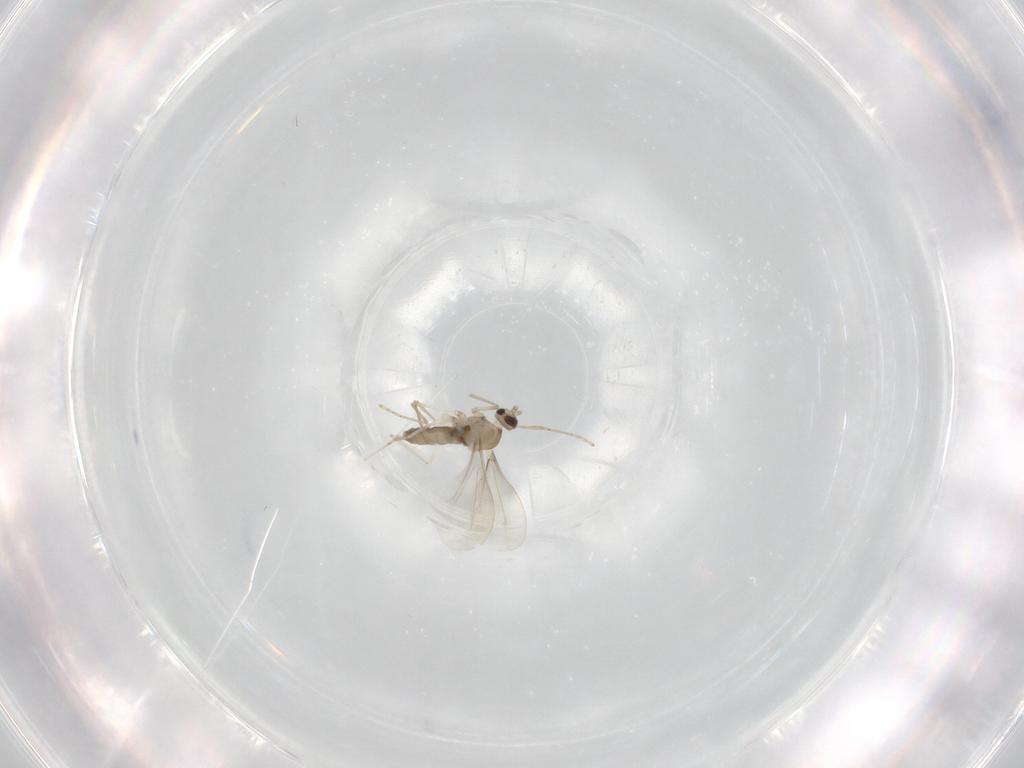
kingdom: Animalia
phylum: Arthropoda
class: Insecta
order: Diptera
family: Cecidomyiidae
